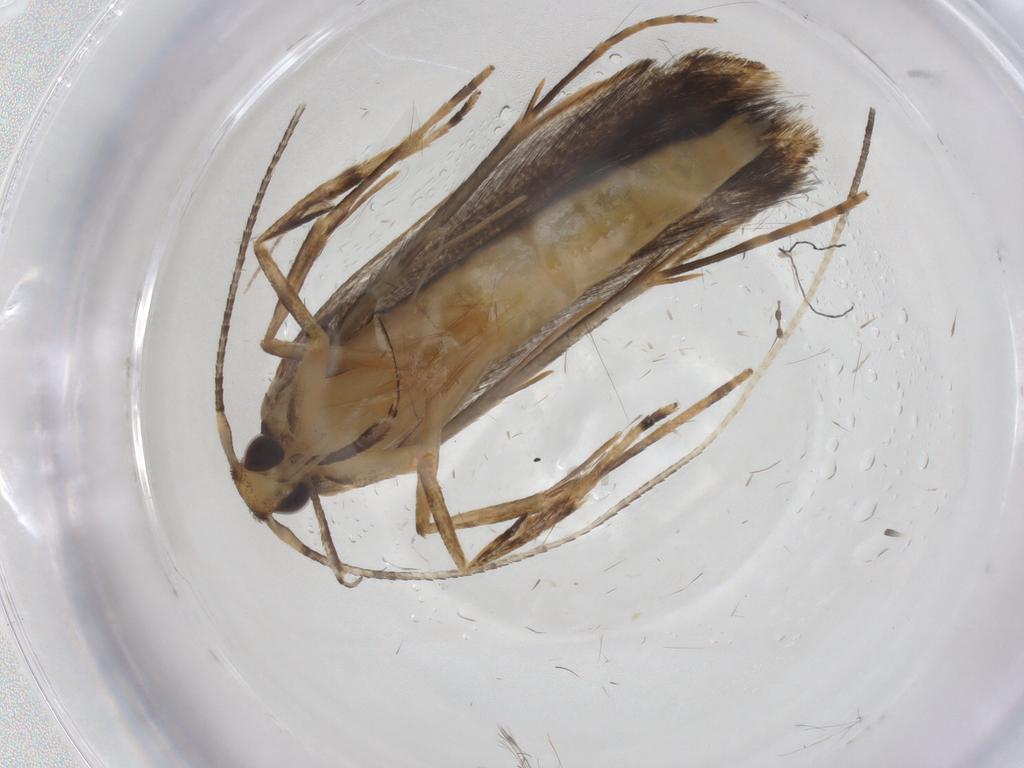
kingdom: Animalia
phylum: Arthropoda
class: Insecta
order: Lepidoptera
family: Pterolonchidae
